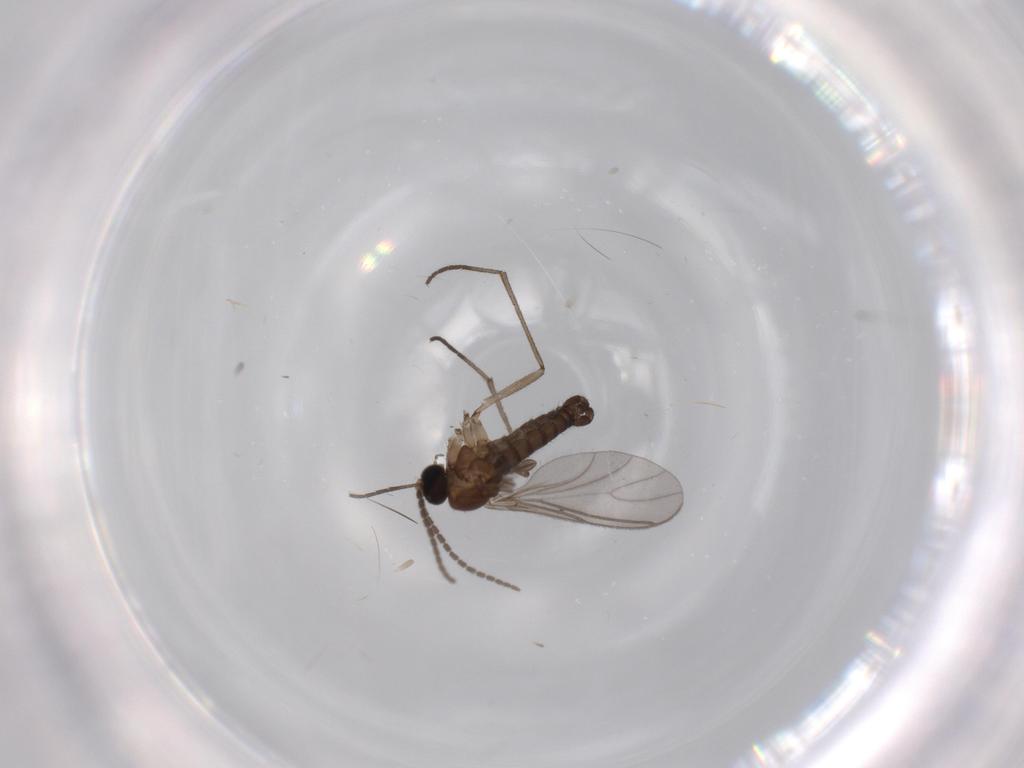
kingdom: Animalia
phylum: Arthropoda
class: Insecta
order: Diptera
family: Sciaridae
